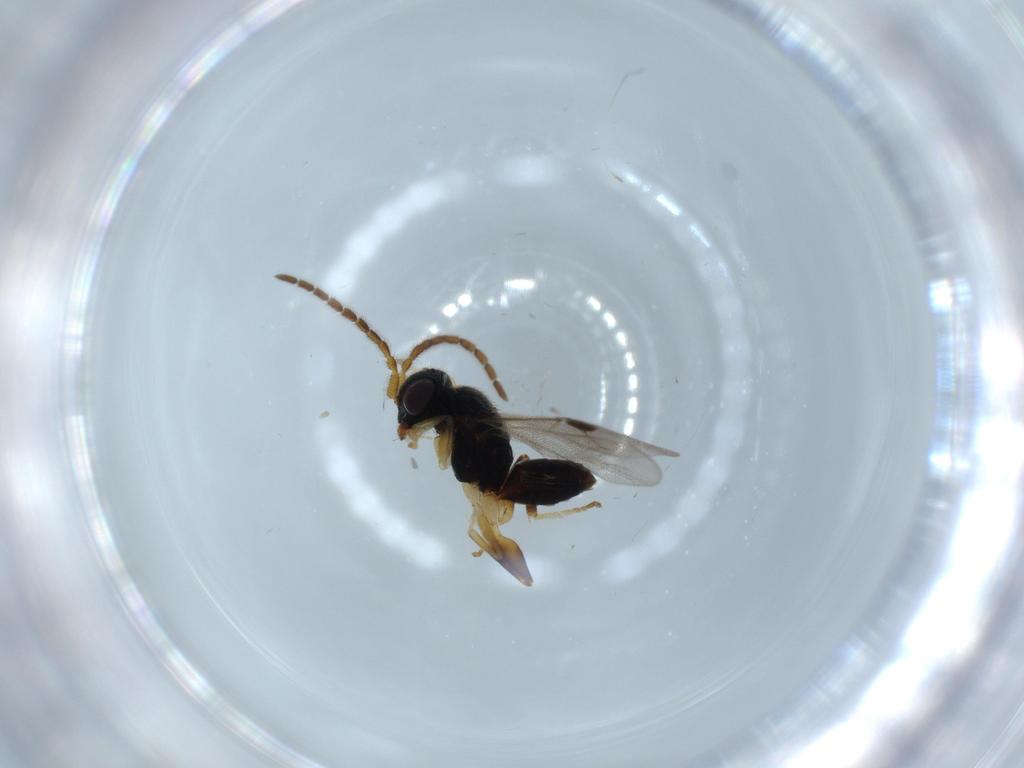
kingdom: Animalia
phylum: Arthropoda
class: Insecta
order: Hymenoptera
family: Dryinidae
